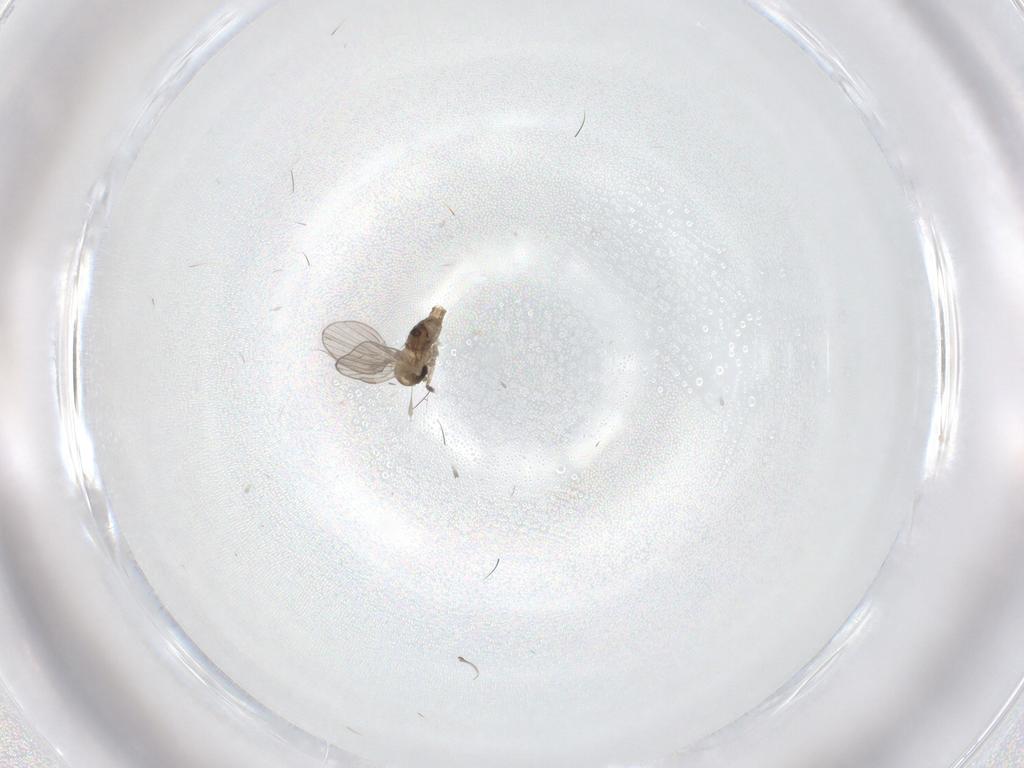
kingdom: Animalia
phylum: Arthropoda
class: Insecta
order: Diptera
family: Psychodidae
